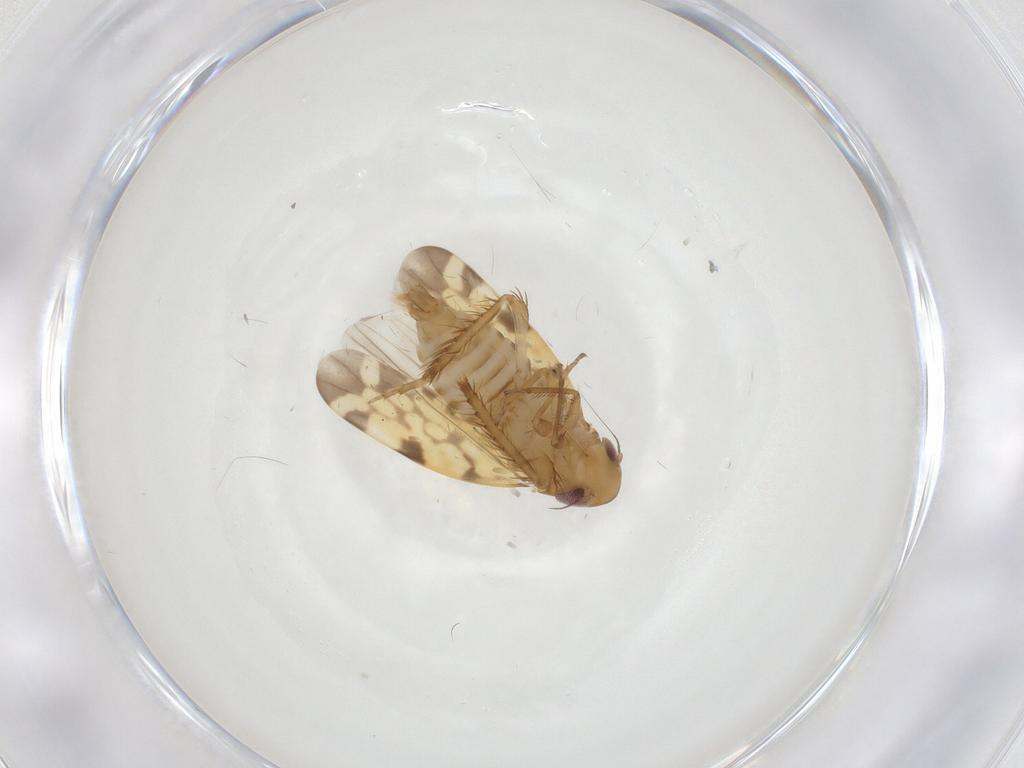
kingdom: Animalia
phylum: Arthropoda
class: Insecta
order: Hemiptera
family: Cicadellidae
